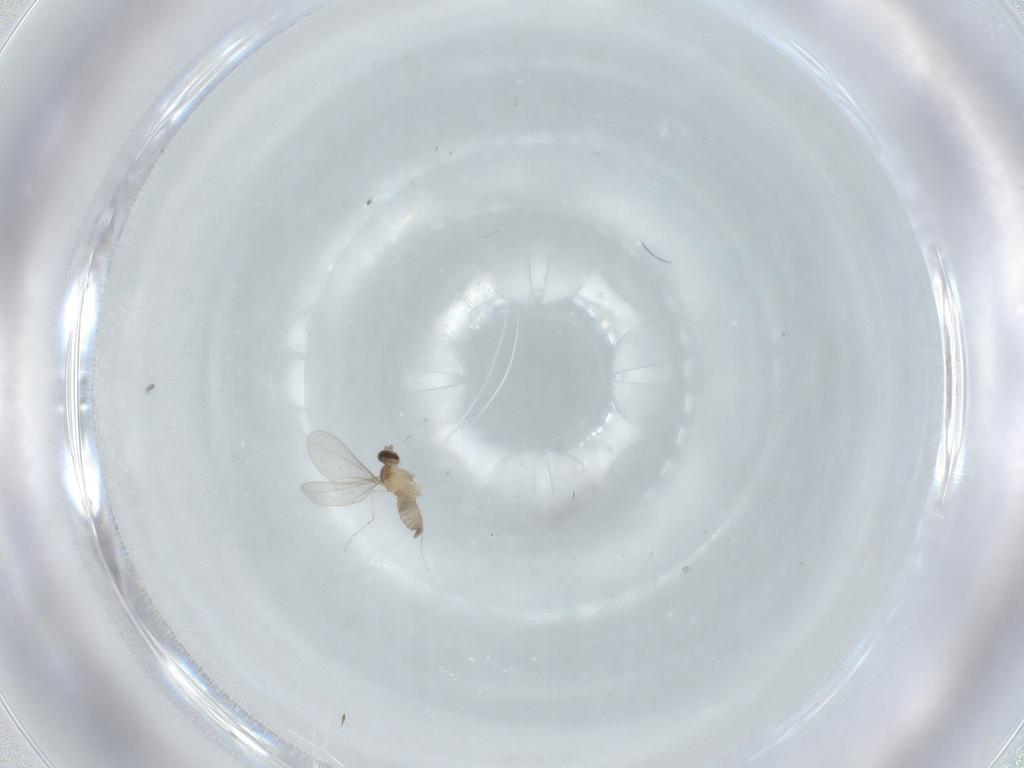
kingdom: Animalia
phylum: Arthropoda
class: Insecta
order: Diptera
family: Cecidomyiidae
